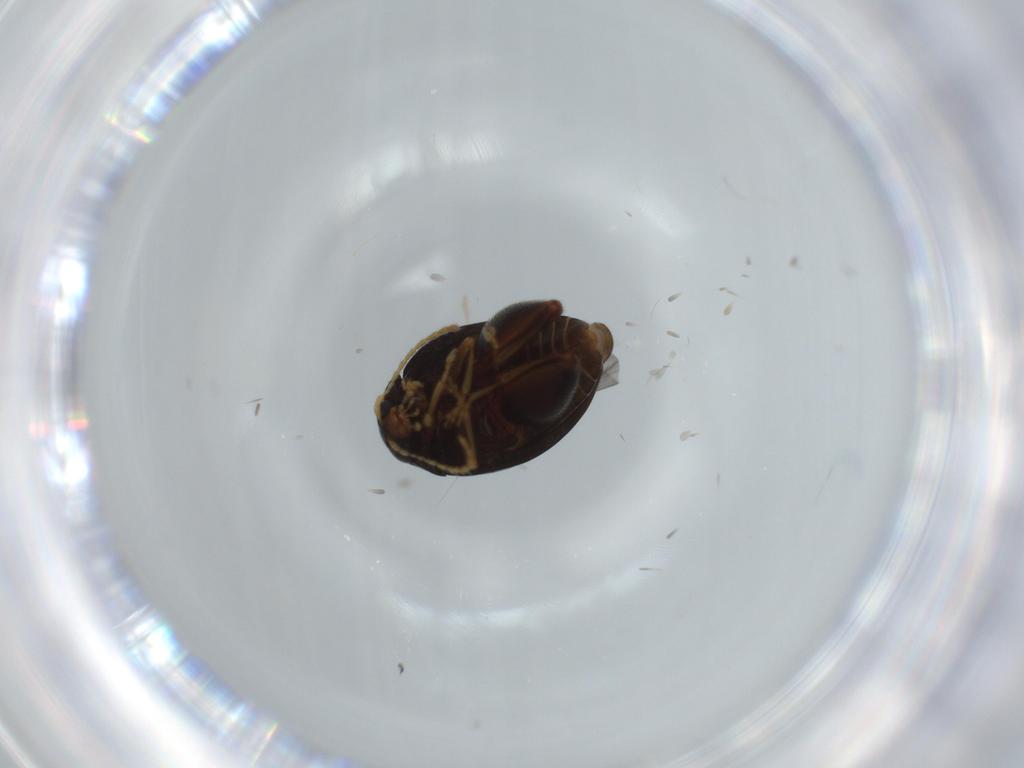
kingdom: Animalia
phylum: Arthropoda
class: Insecta
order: Coleoptera
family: Chrysomelidae
